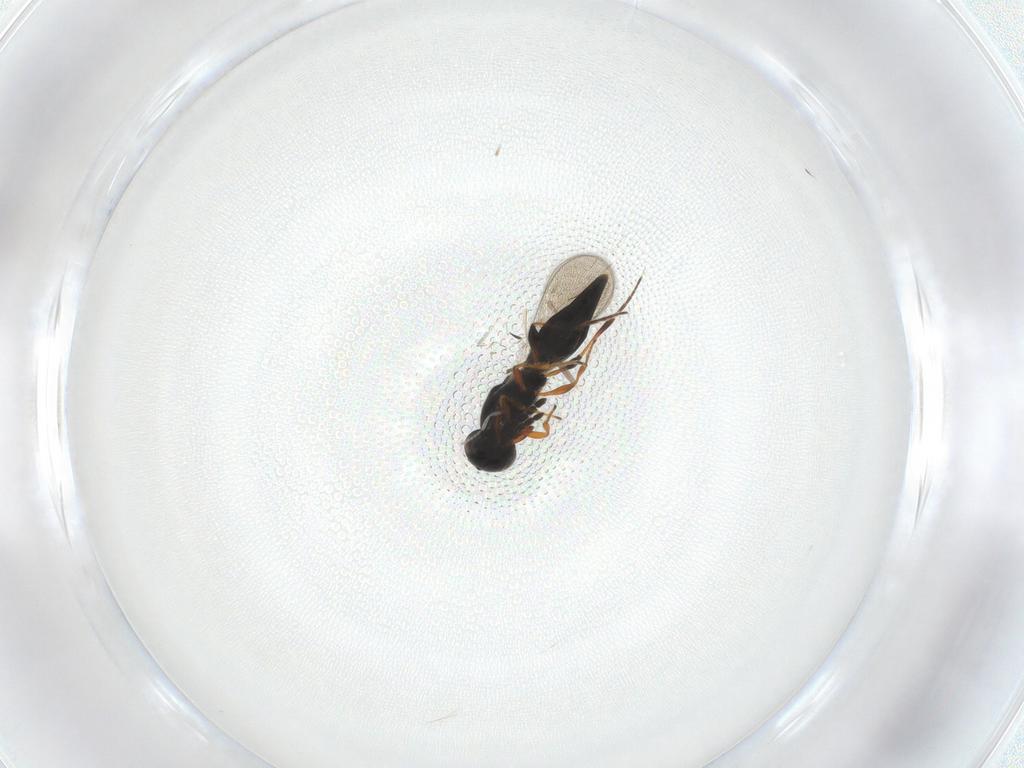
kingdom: Animalia
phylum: Arthropoda
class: Insecta
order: Hymenoptera
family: Platygastridae
